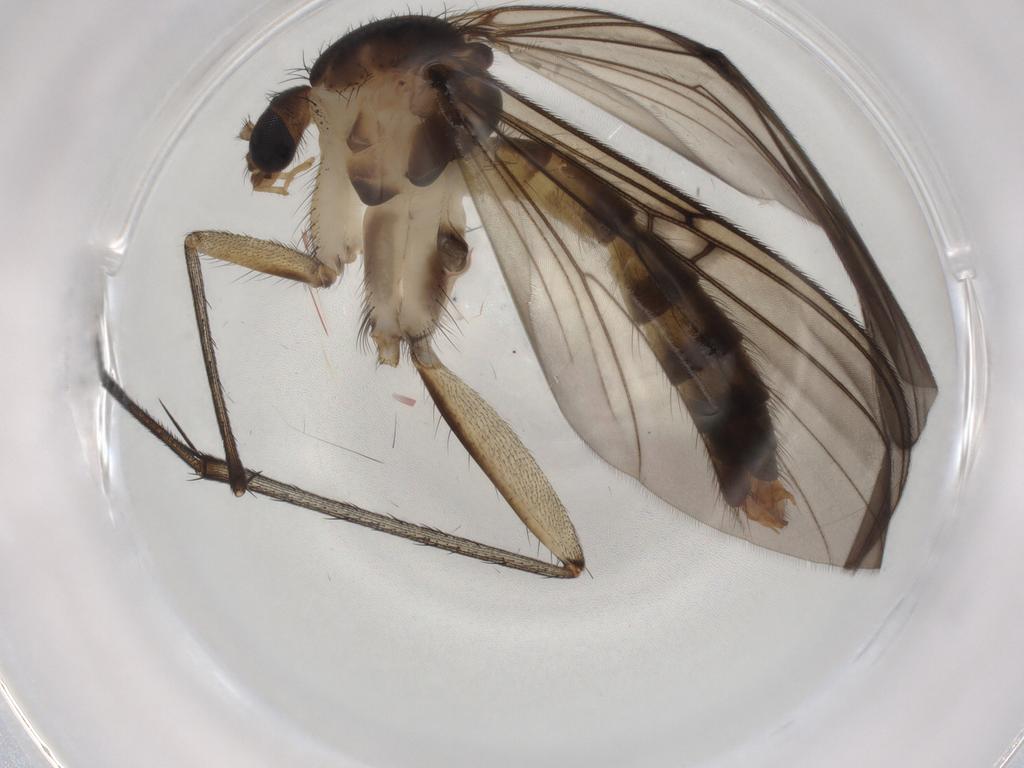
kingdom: Animalia
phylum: Arthropoda
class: Insecta
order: Diptera
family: Mycetophilidae
